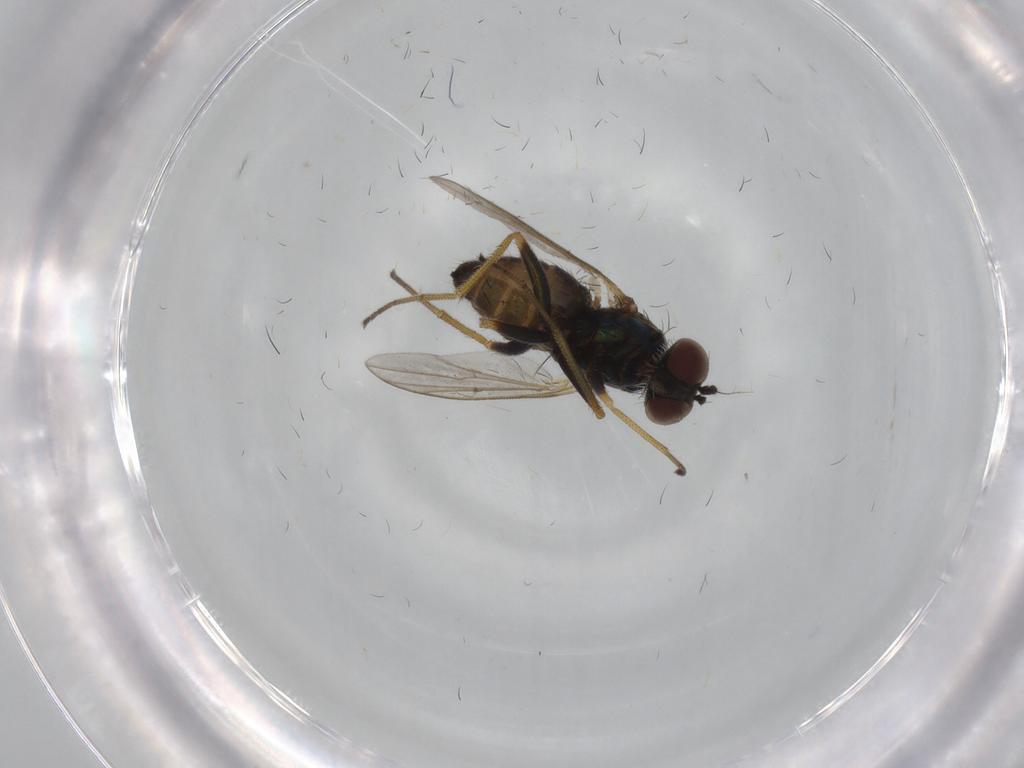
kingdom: Animalia
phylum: Arthropoda
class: Insecta
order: Diptera
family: Dolichopodidae
